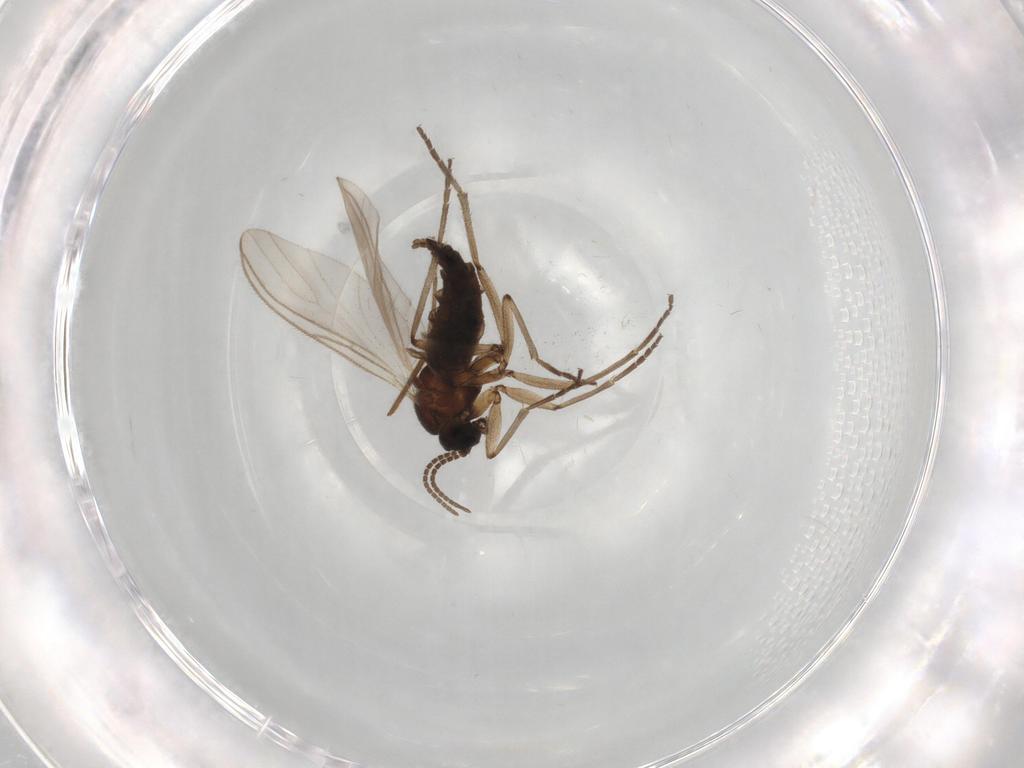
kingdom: Animalia
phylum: Arthropoda
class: Insecta
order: Diptera
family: Sciaridae
